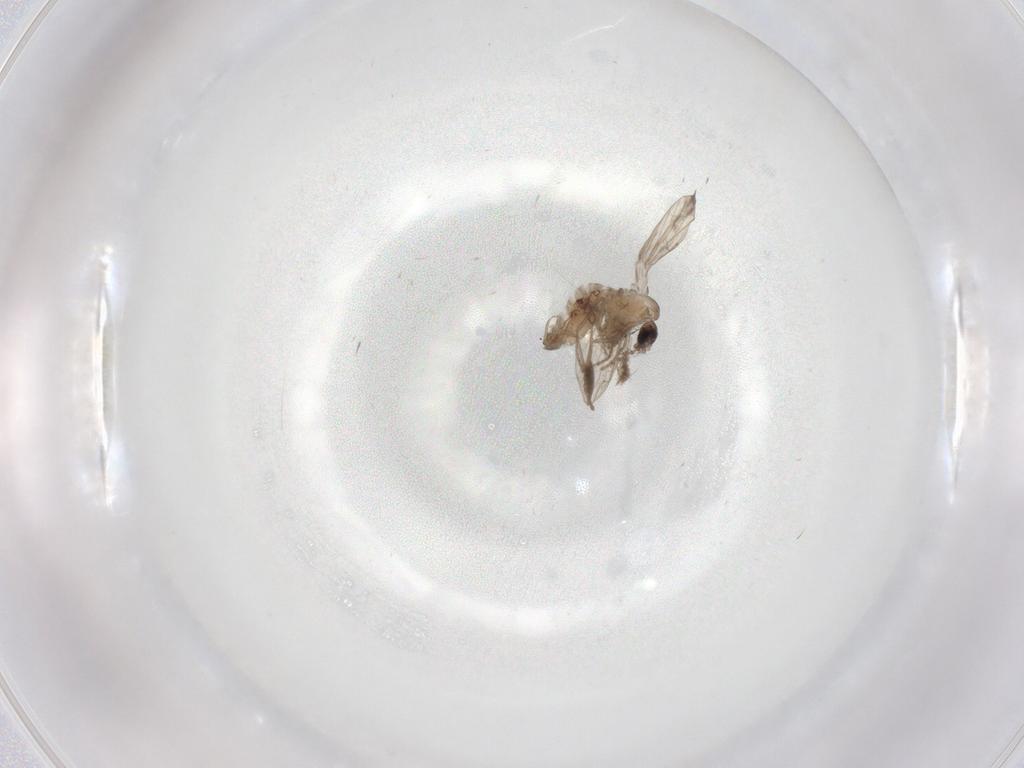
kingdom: Animalia
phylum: Arthropoda
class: Insecta
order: Diptera
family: Psychodidae
